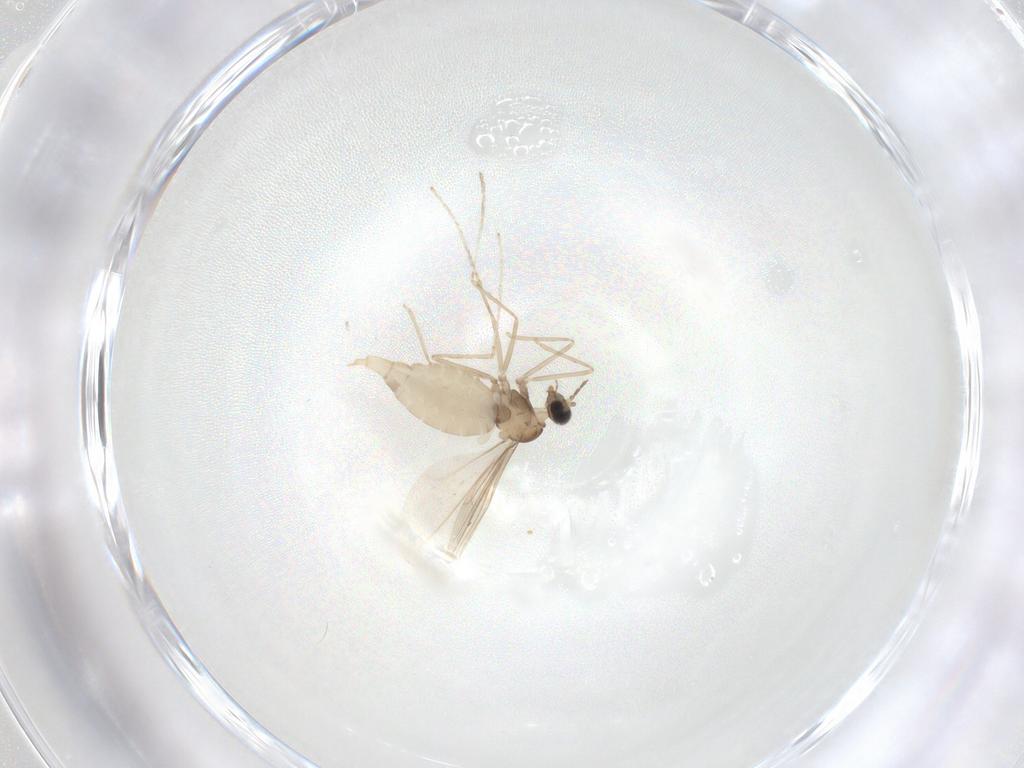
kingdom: Animalia
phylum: Arthropoda
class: Insecta
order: Diptera
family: Cecidomyiidae
